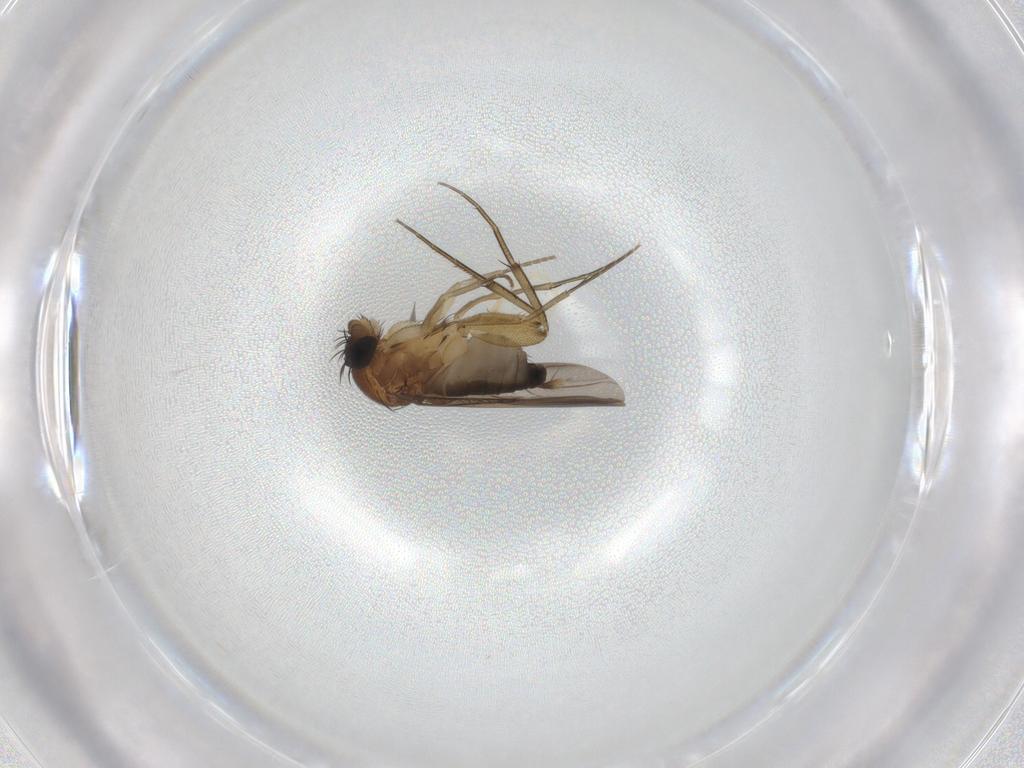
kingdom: Animalia
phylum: Arthropoda
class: Insecta
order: Diptera
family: Phoridae
